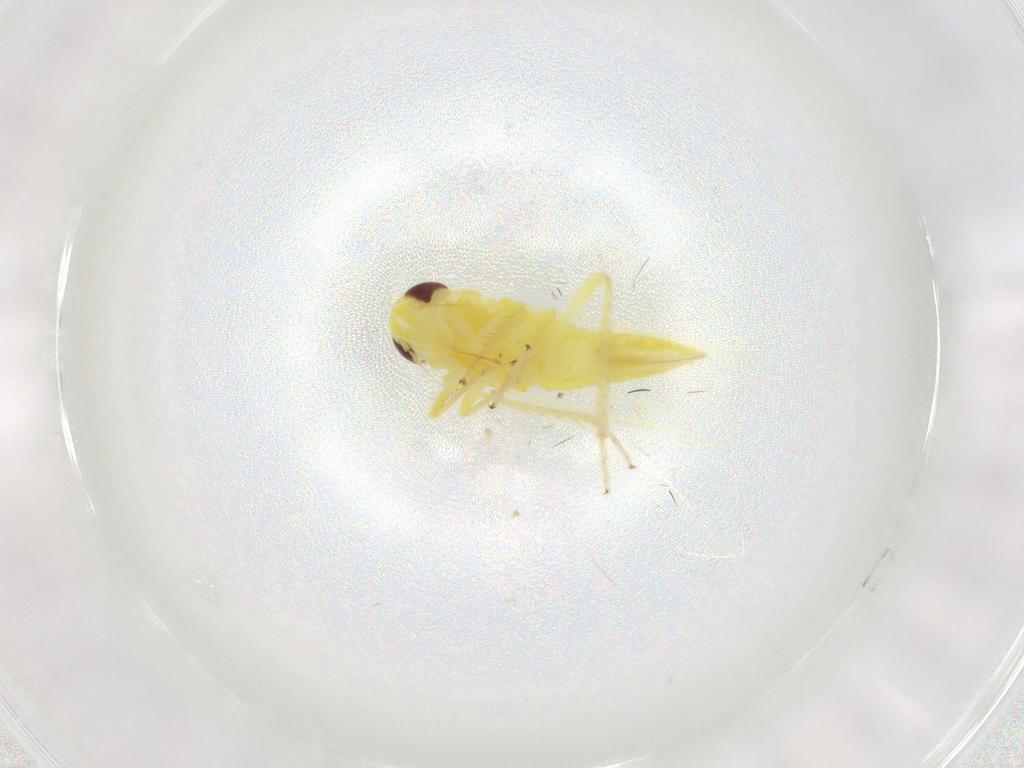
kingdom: Animalia
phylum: Arthropoda
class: Insecta
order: Hemiptera
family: Cicadellidae
